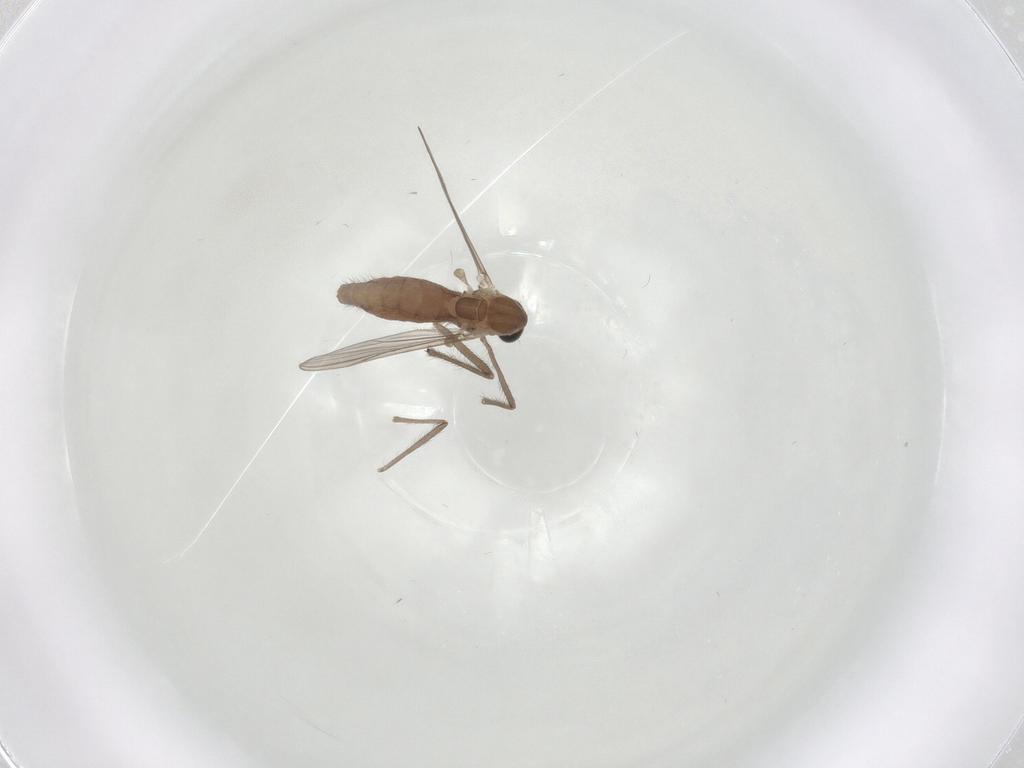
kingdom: Animalia
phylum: Arthropoda
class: Insecta
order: Diptera
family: Chironomidae
